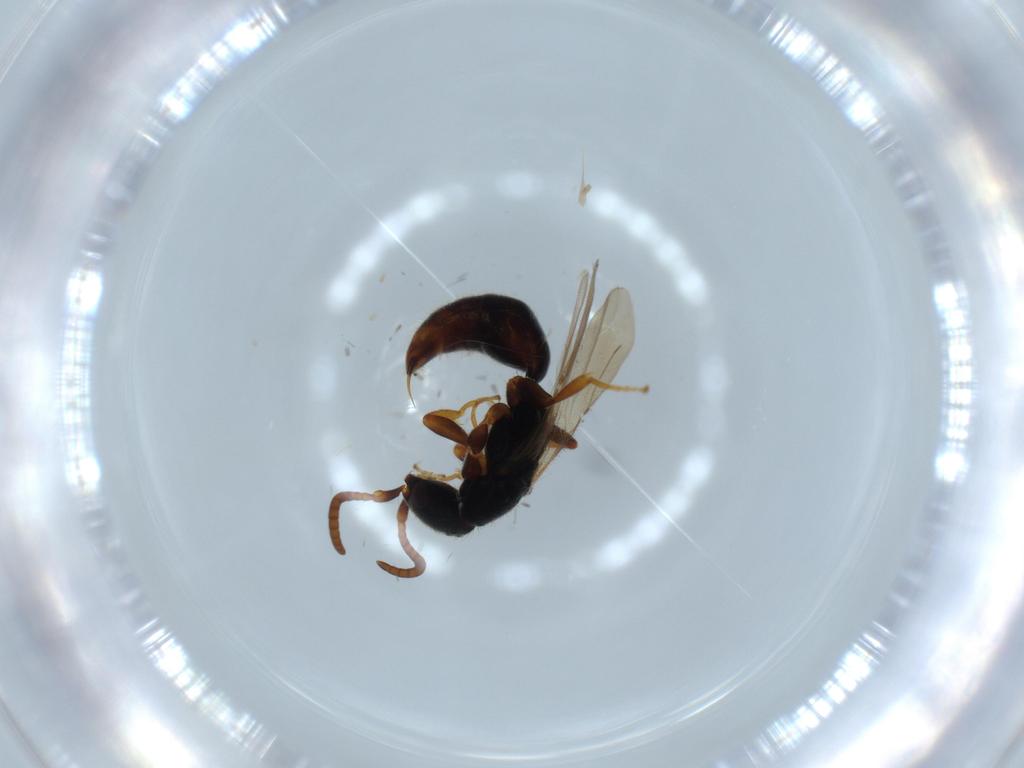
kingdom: Animalia
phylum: Arthropoda
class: Insecta
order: Hymenoptera
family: Bethylidae
